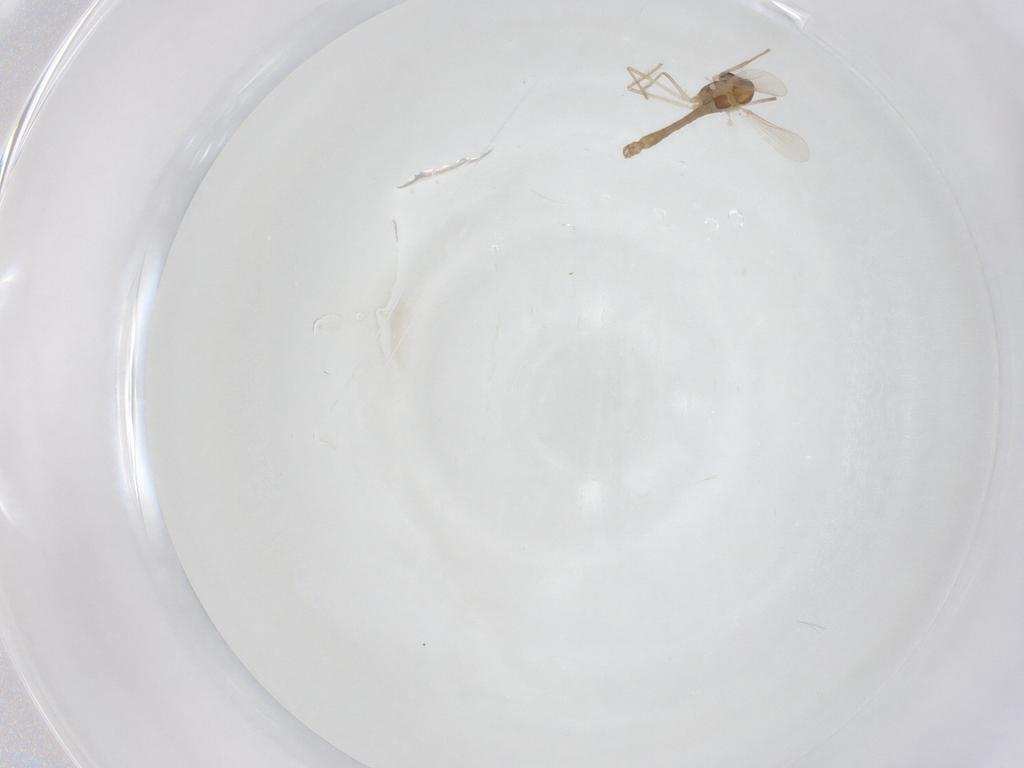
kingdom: Animalia
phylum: Arthropoda
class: Insecta
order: Diptera
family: Chironomidae
